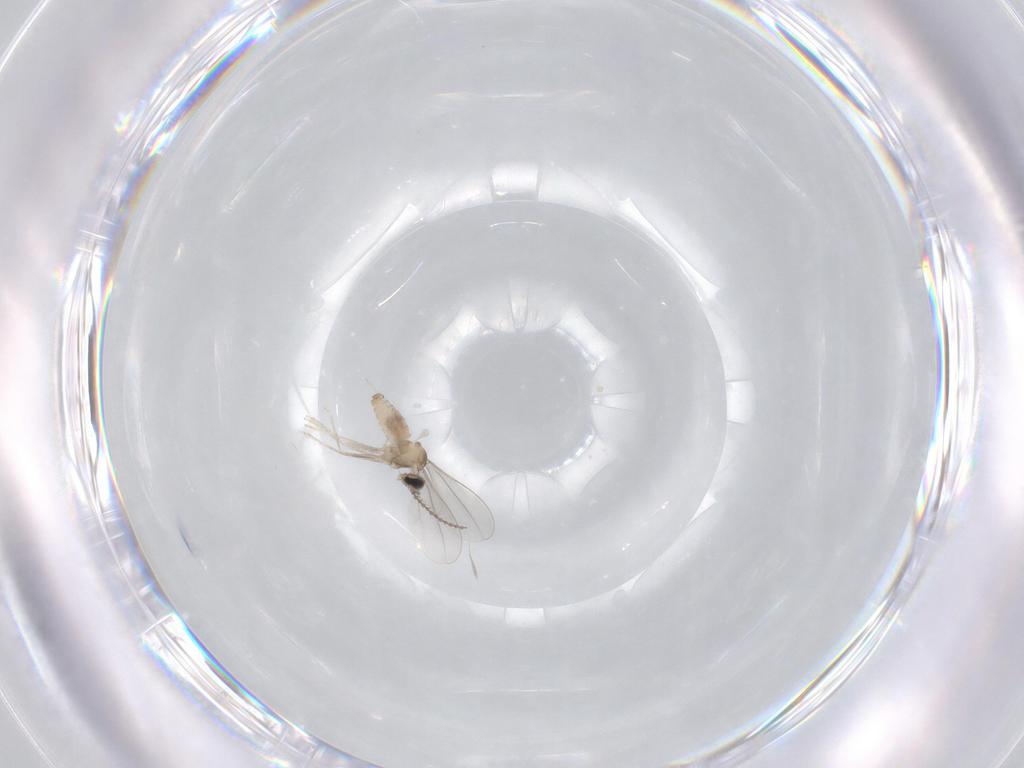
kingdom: Animalia
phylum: Arthropoda
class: Insecta
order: Diptera
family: Cecidomyiidae
